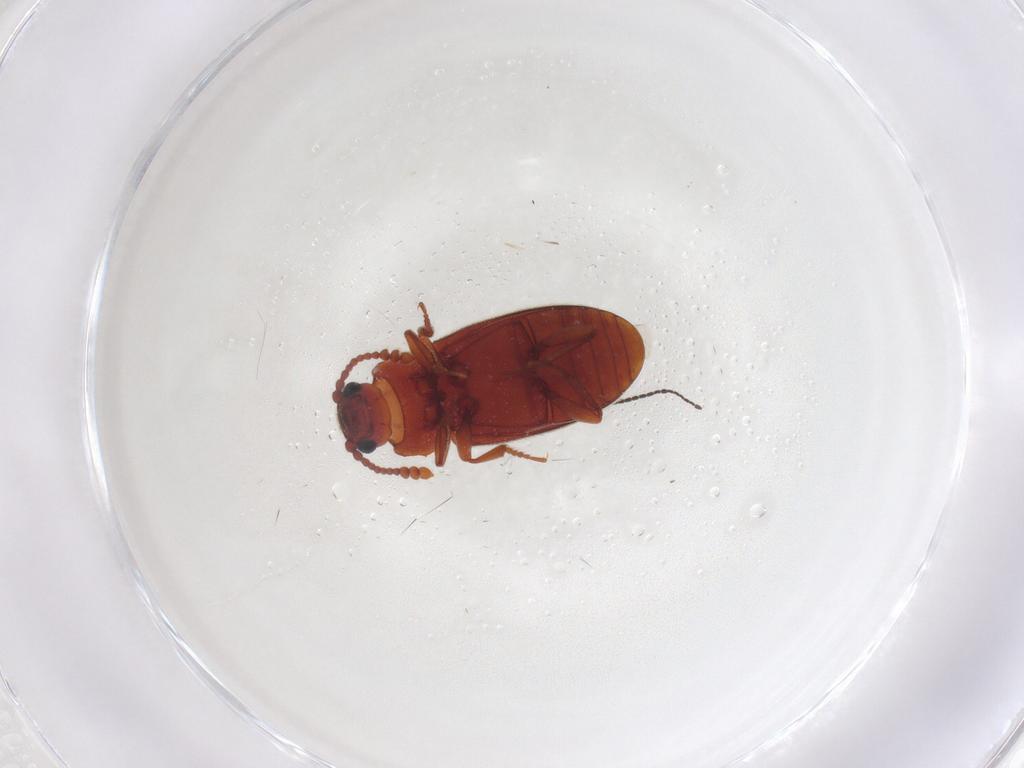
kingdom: Animalia
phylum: Arthropoda
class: Insecta
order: Coleoptera
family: Cryptophagidae
